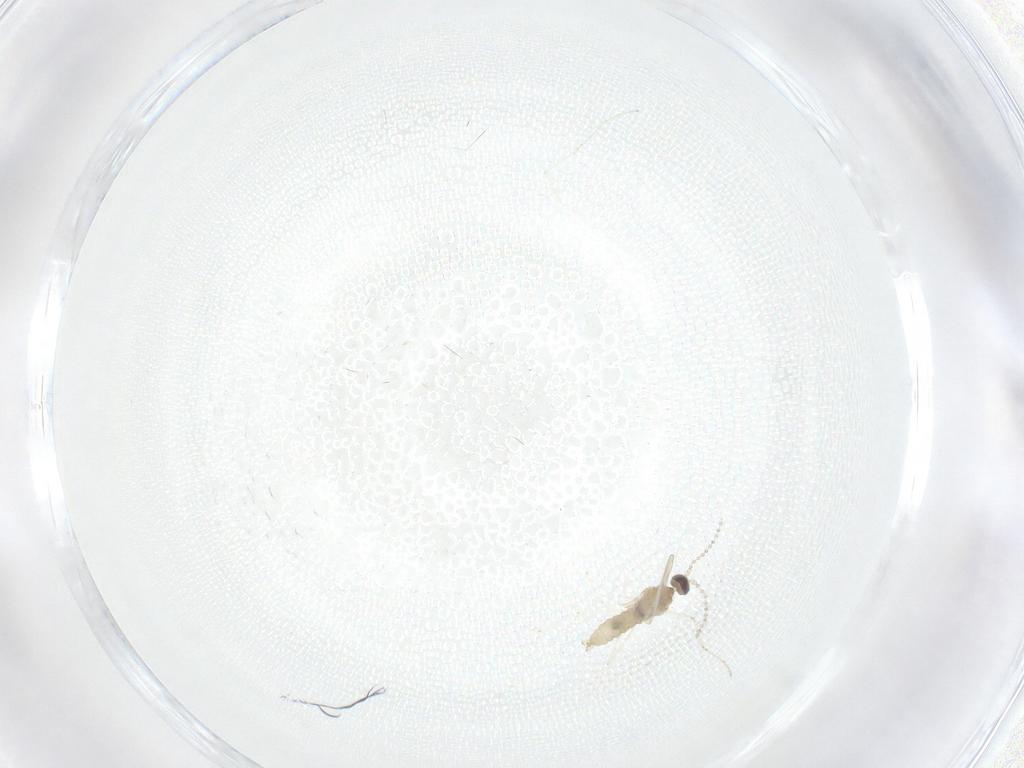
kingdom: Animalia
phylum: Arthropoda
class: Insecta
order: Diptera
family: Cecidomyiidae
